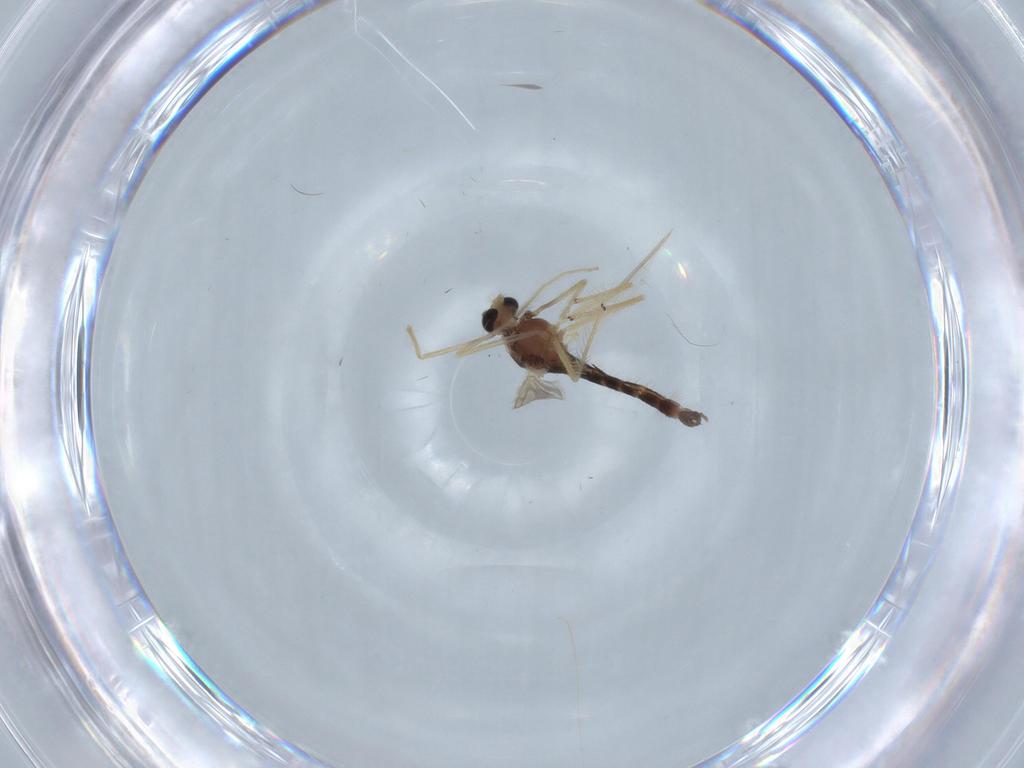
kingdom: Animalia
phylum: Arthropoda
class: Insecta
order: Diptera
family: Chironomidae
